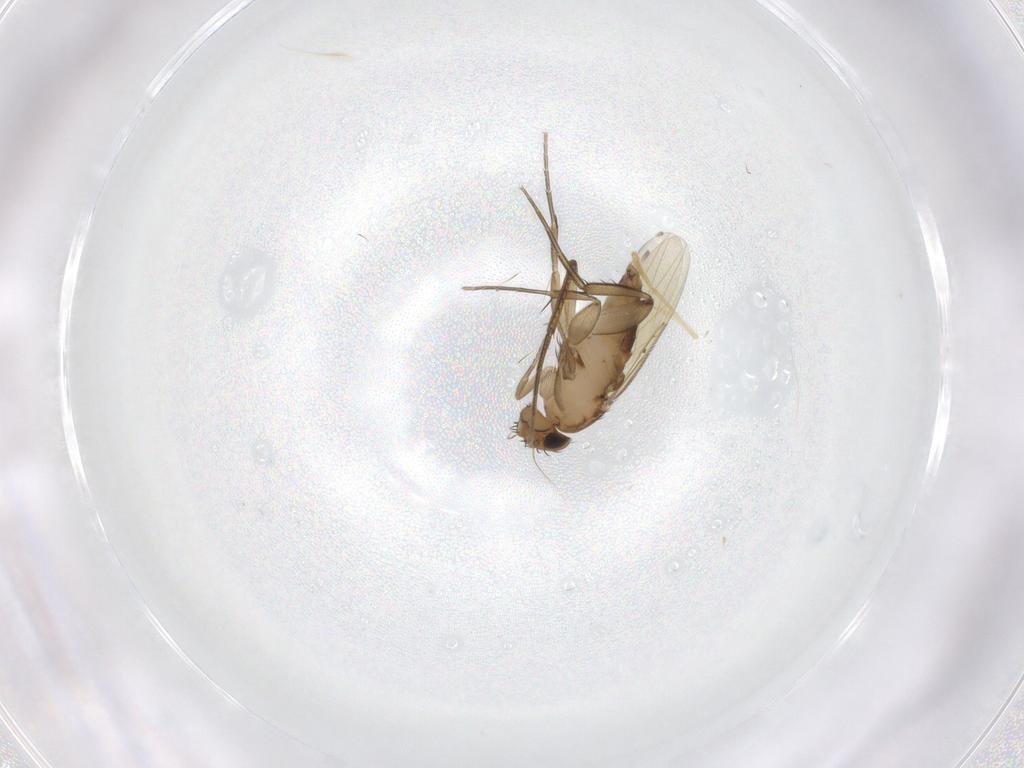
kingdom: Animalia
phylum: Arthropoda
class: Insecta
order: Diptera
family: Phoridae
